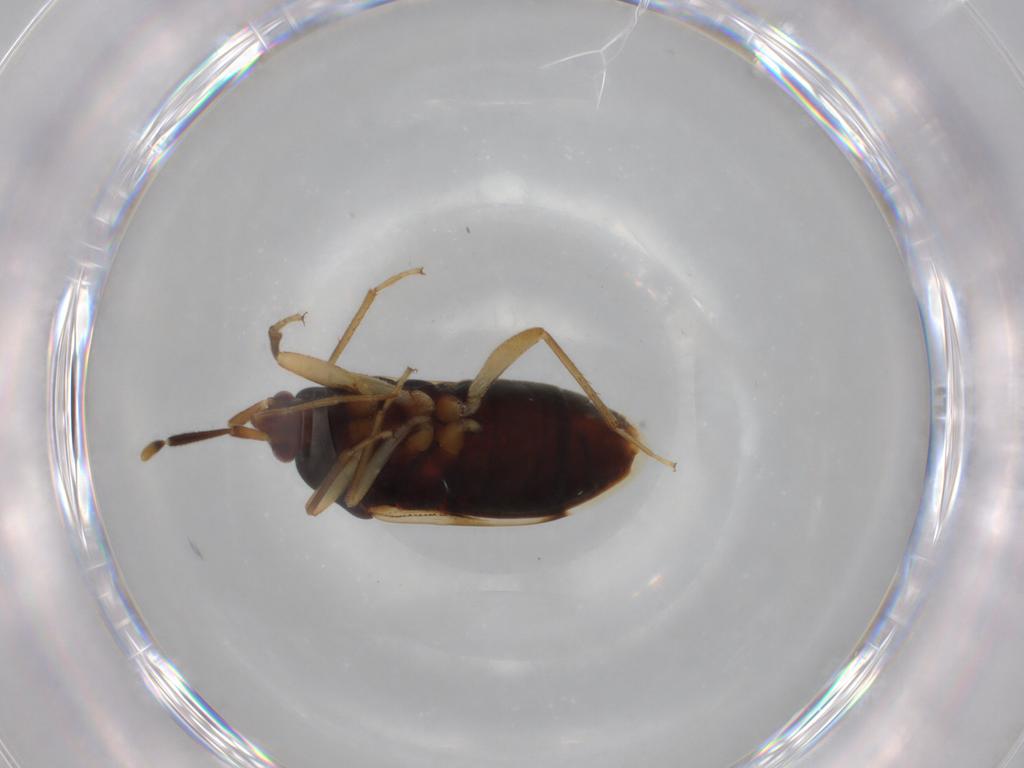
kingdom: Animalia
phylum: Arthropoda
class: Insecta
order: Hemiptera
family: Rhyparochromidae
